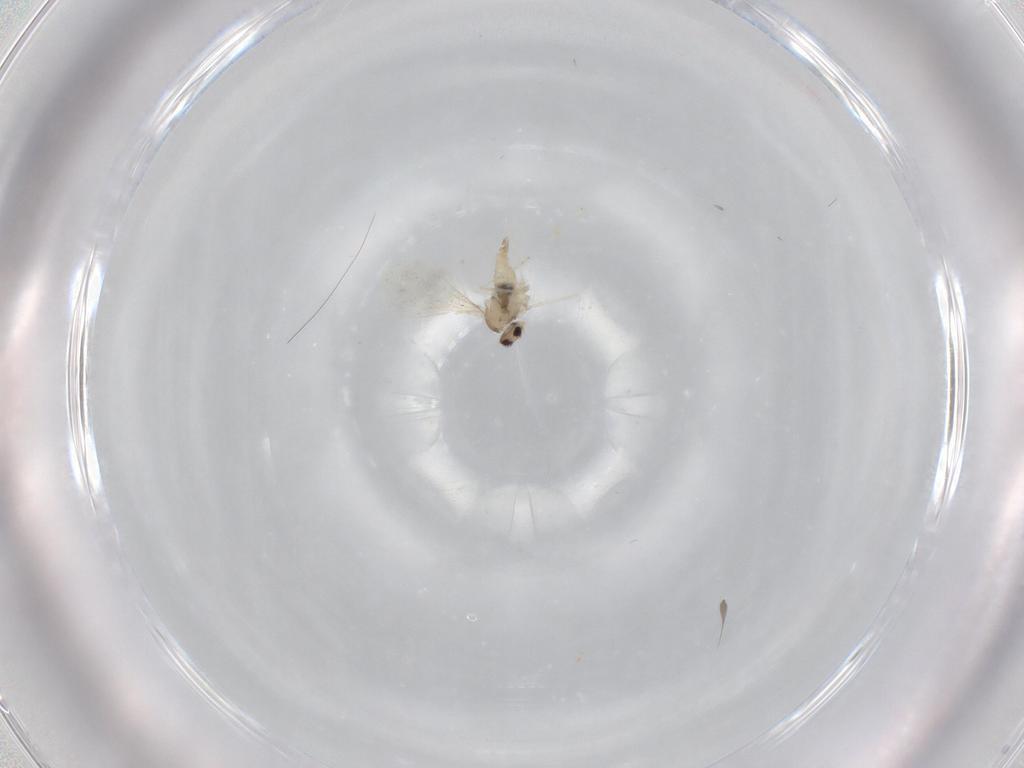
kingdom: Animalia
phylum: Arthropoda
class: Insecta
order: Diptera
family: Cecidomyiidae
